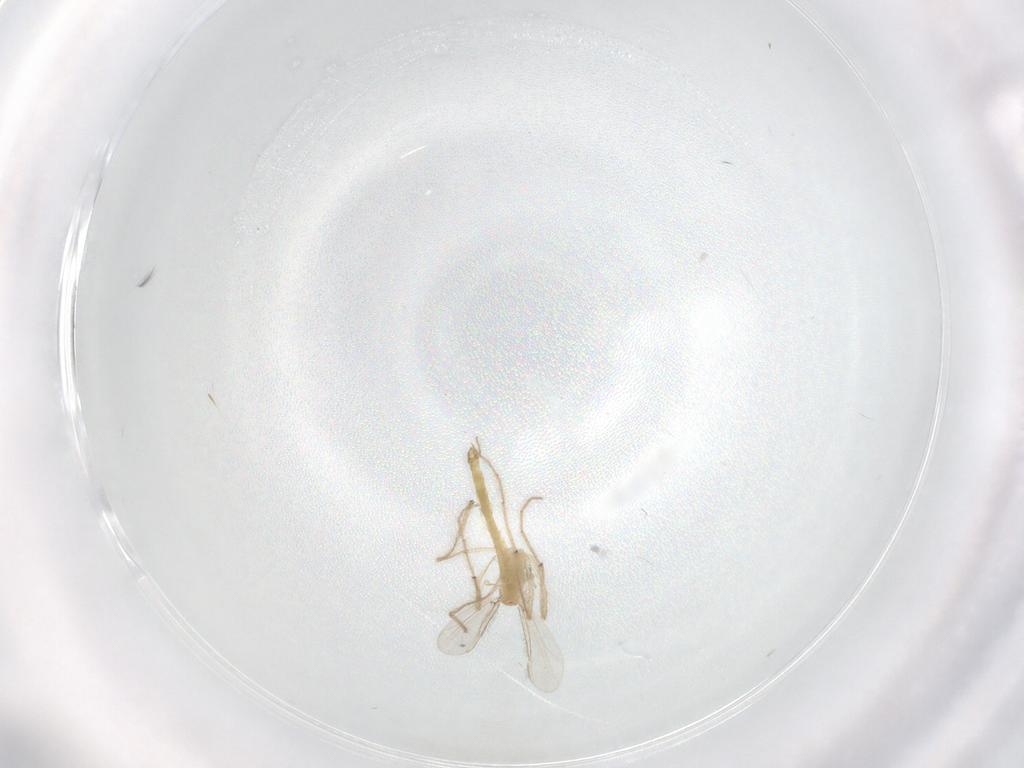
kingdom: Animalia
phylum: Arthropoda
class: Insecta
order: Diptera
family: Chironomidae
